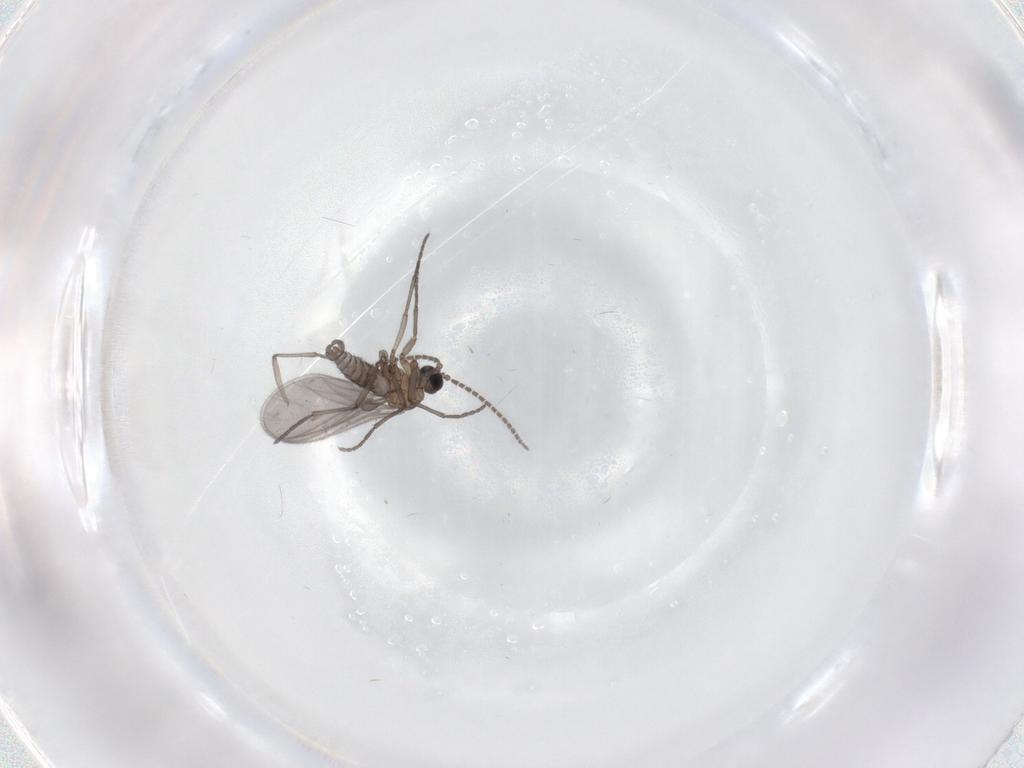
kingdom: Animalia
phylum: Arthropoda
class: Insecta
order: Diptera
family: Sciaridae
